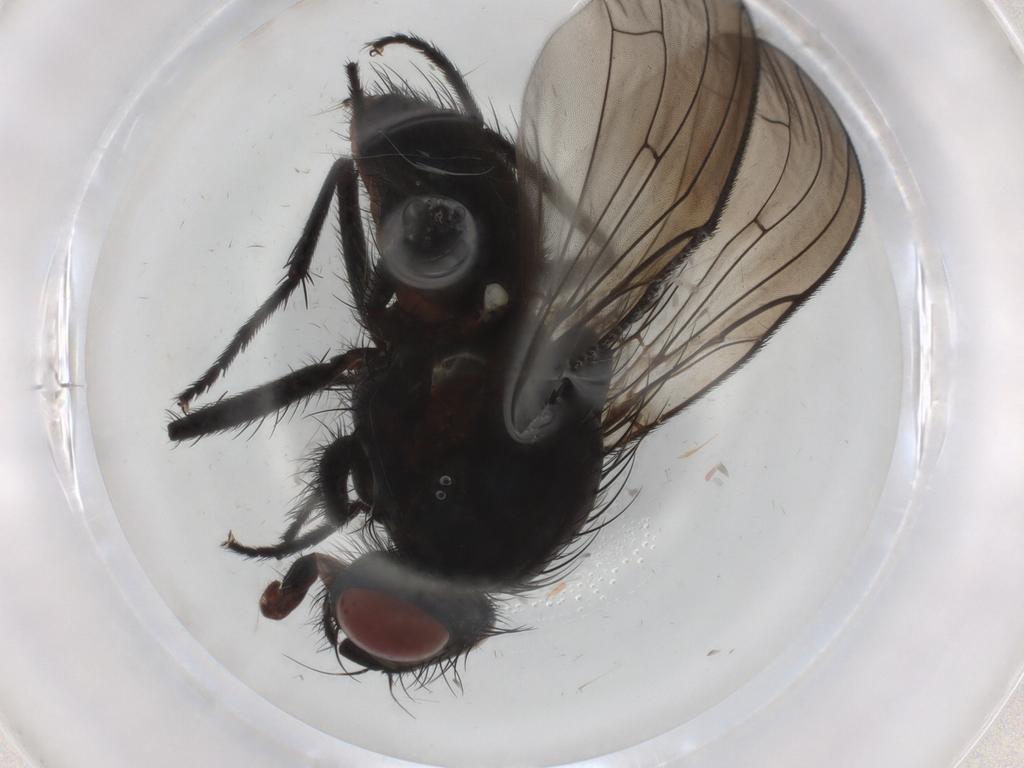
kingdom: Animalia
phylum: Arthropoda
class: Insecta
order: Diptera
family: Anthomyiidae
